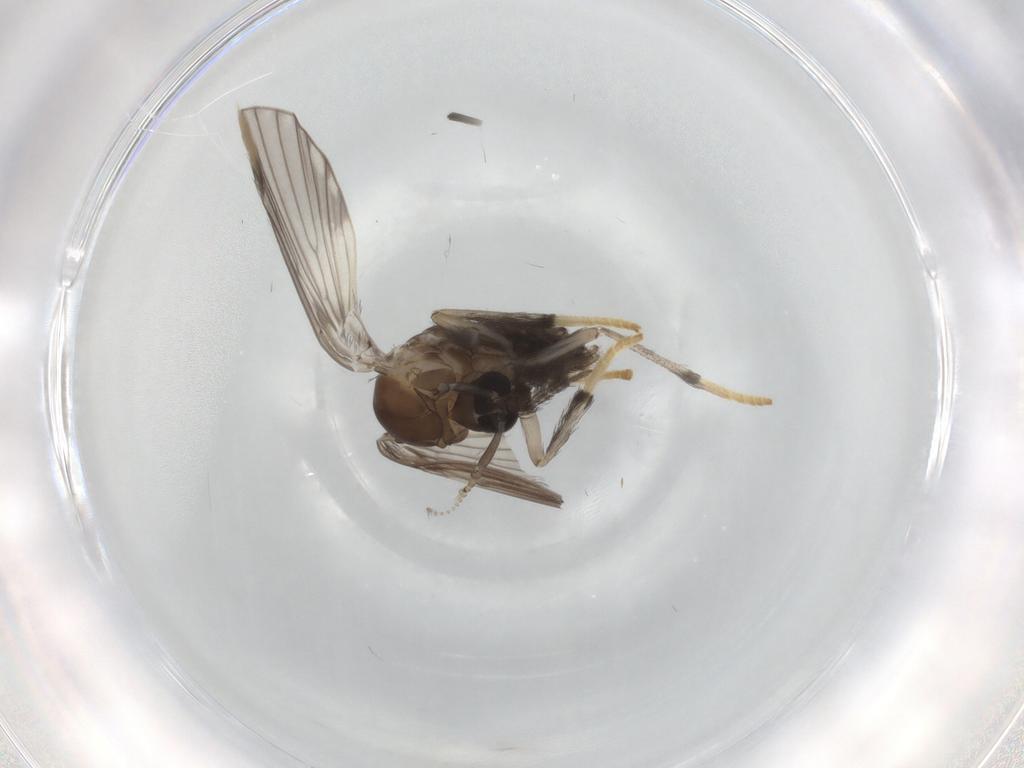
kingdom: Animalia
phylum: Arthropoda
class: Insecta
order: Diptera
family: Psychodidae
